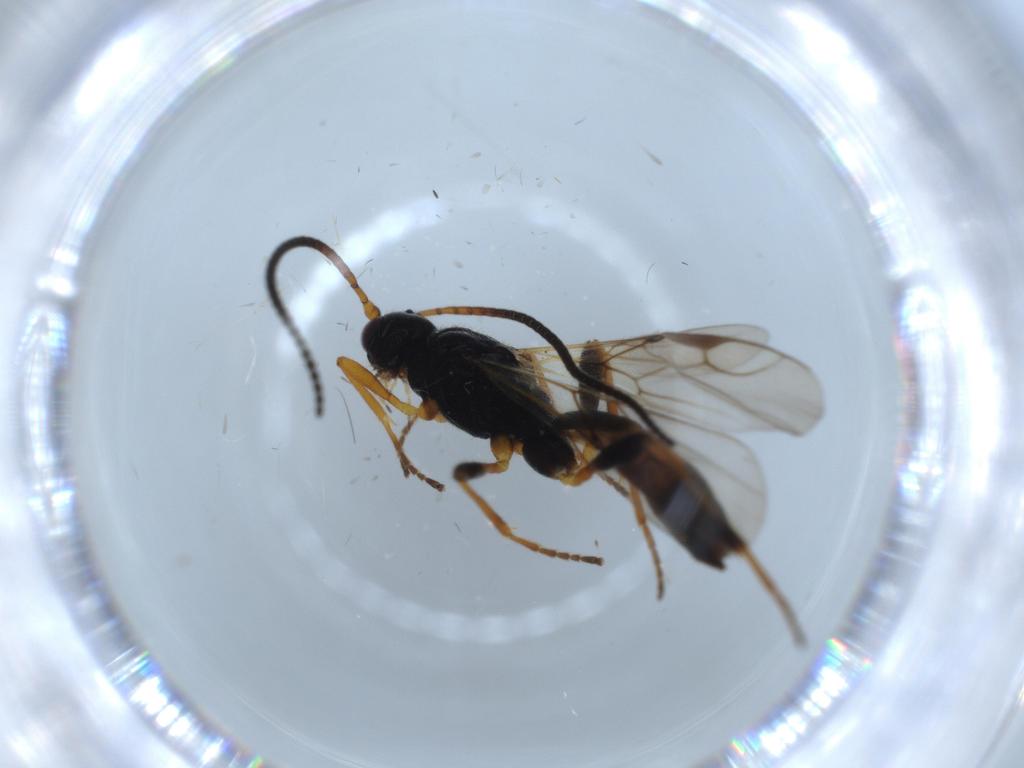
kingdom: Animalia
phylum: Arthropoda
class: Insecta
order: Hymenoptera
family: Braconidae
